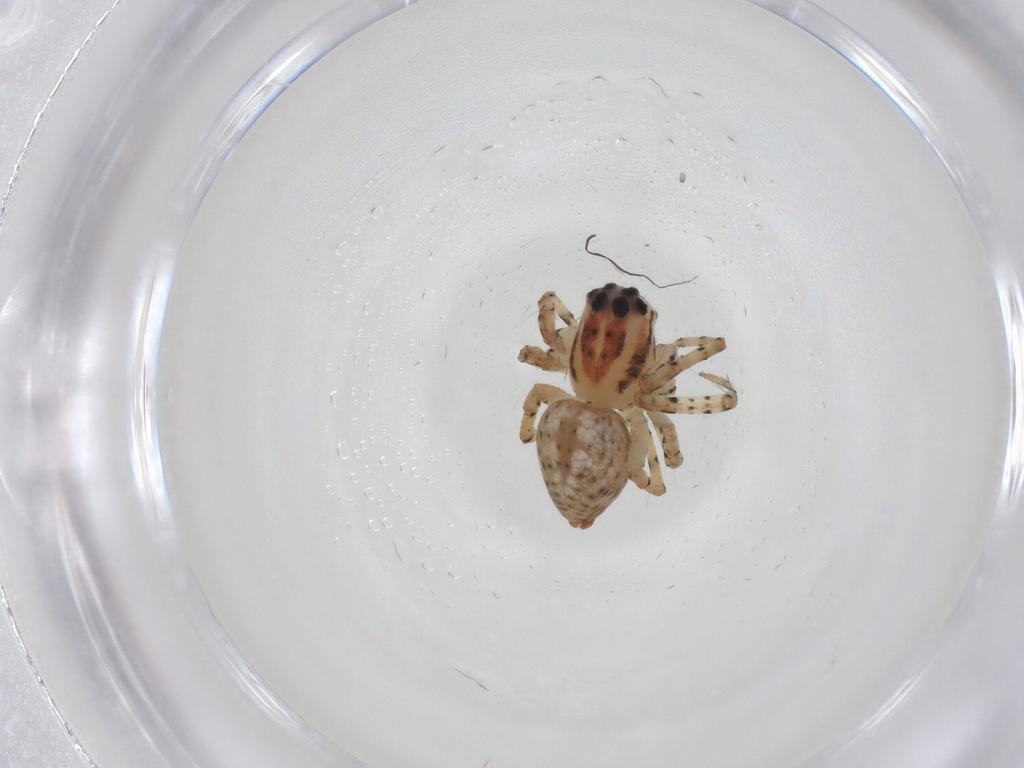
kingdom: Animalia
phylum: Arthropoda
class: Arachnida
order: Araneae
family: Oxyopidae
